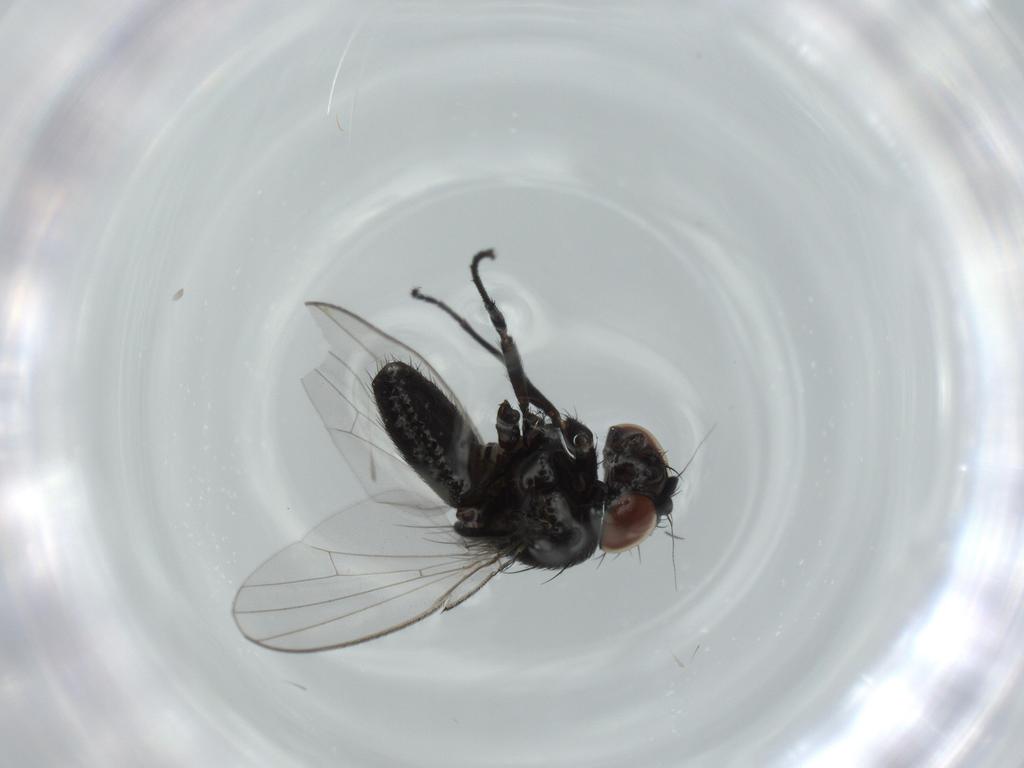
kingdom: Animalia
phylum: Arthropoda
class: Insecta
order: Diptera
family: Milichiidae
